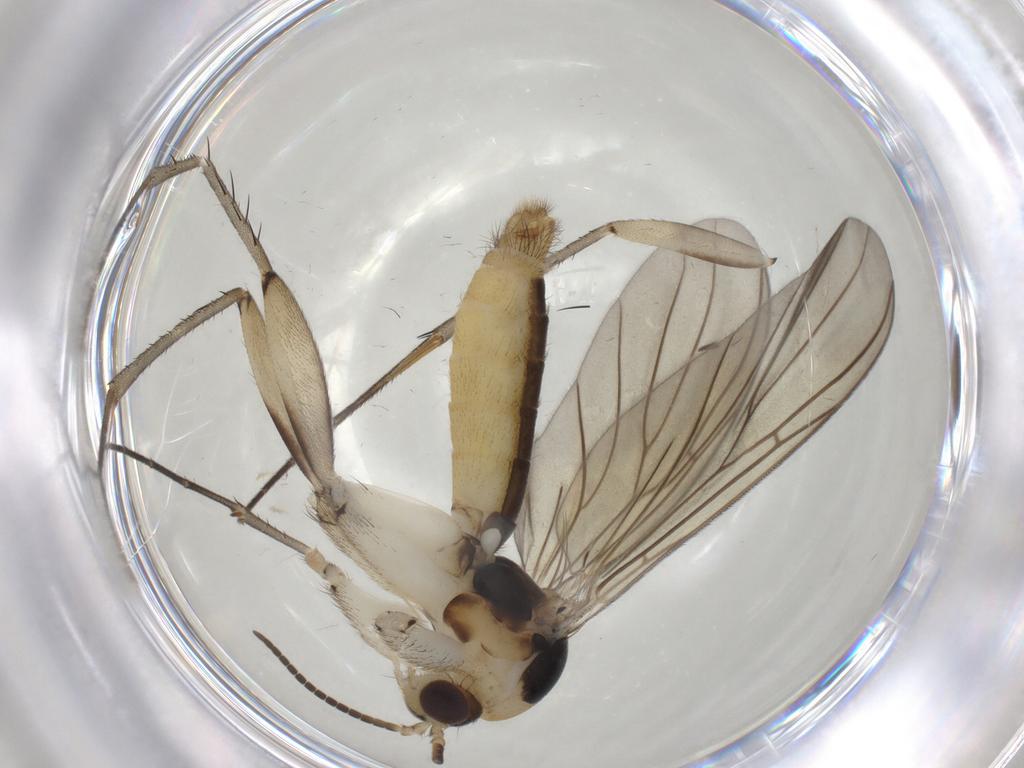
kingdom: Animalia
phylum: Arthropoda
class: Insecta
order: Diptera
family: Mycetophilidae
